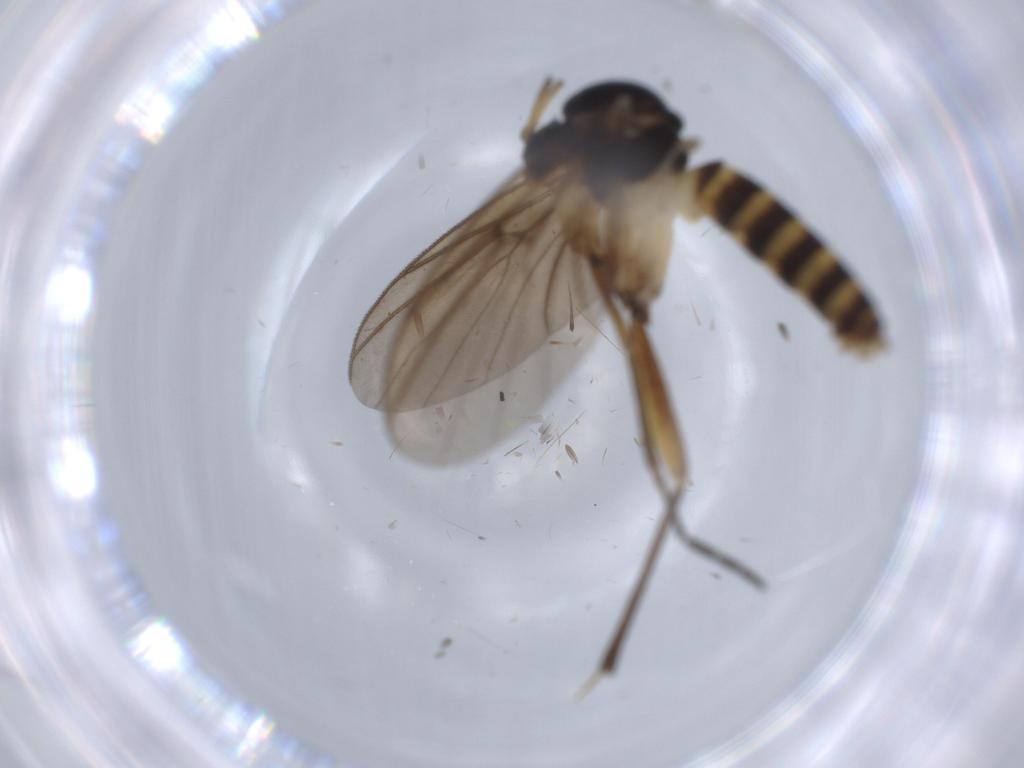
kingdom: Animalia
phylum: Arthropoda
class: Insecta
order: Diptera
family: Mycetophilidae
